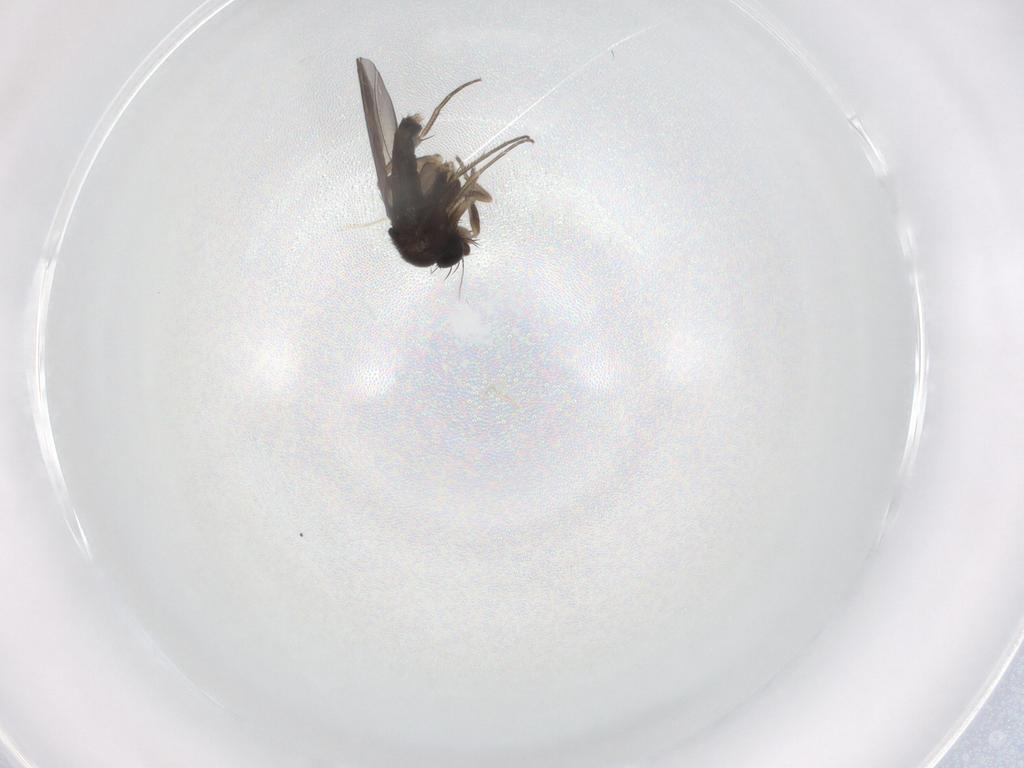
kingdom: Animalia
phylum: Arthropoda
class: Insecta
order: Diptera
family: Phoridae
